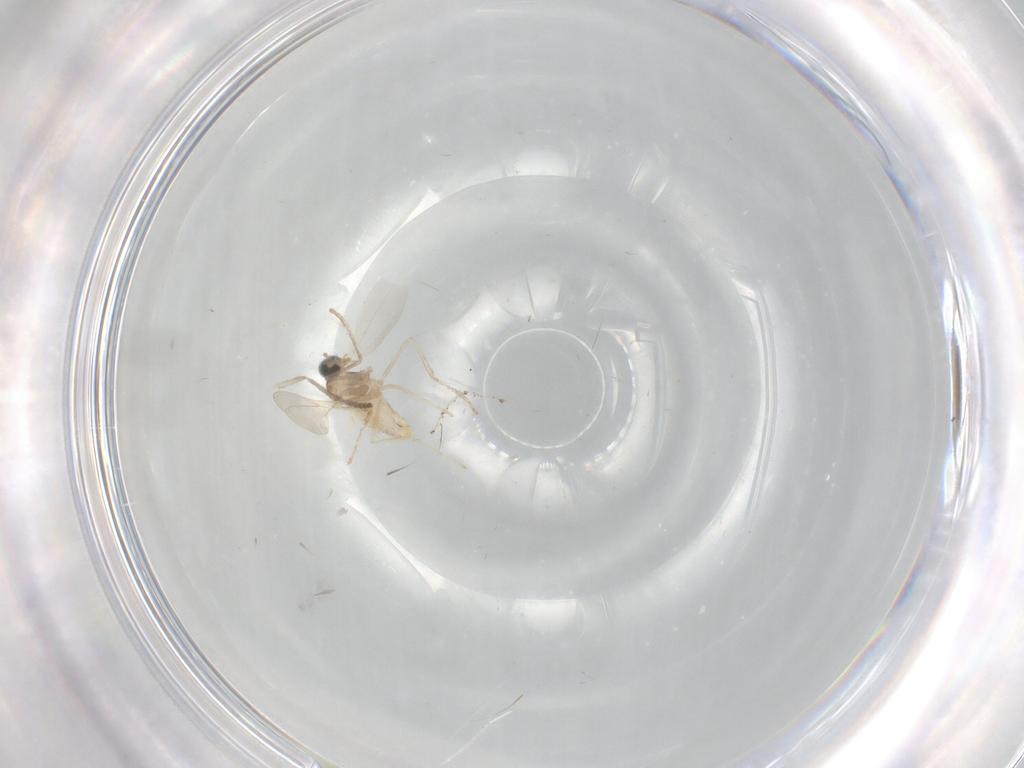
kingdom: Animalia
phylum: Arthropoda
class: Insecta
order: Diptera
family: Cecidomyiidae
